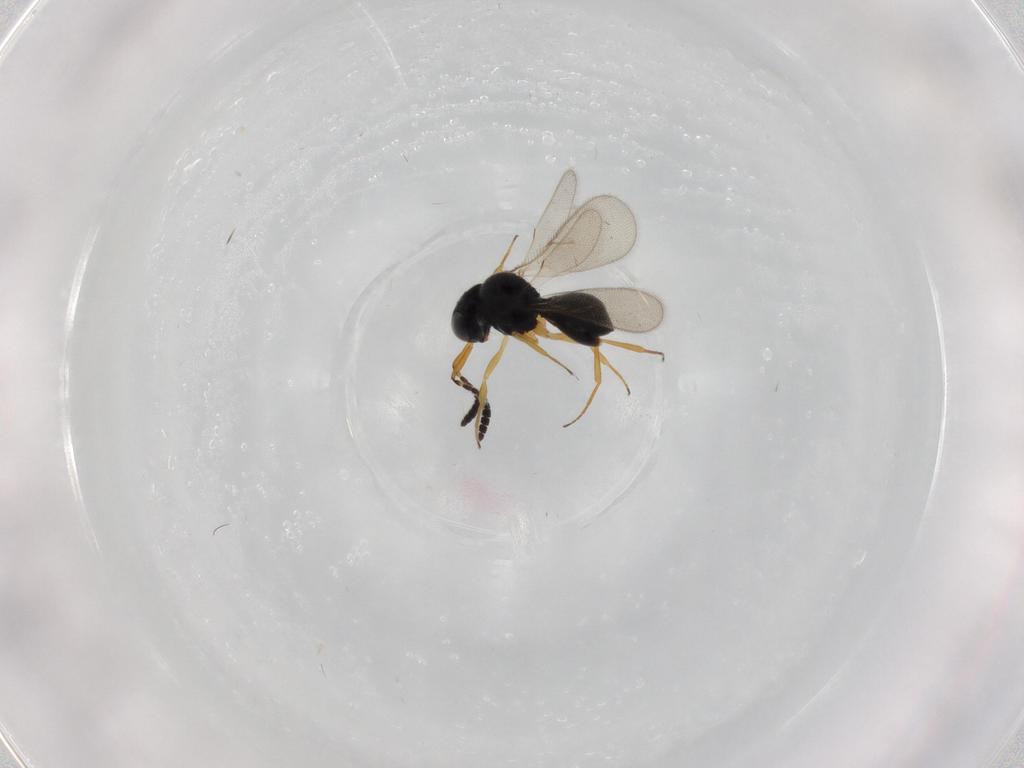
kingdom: Animalia
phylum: Arthropoda
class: Insecta
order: Hymenoptera
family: Scelionidae
